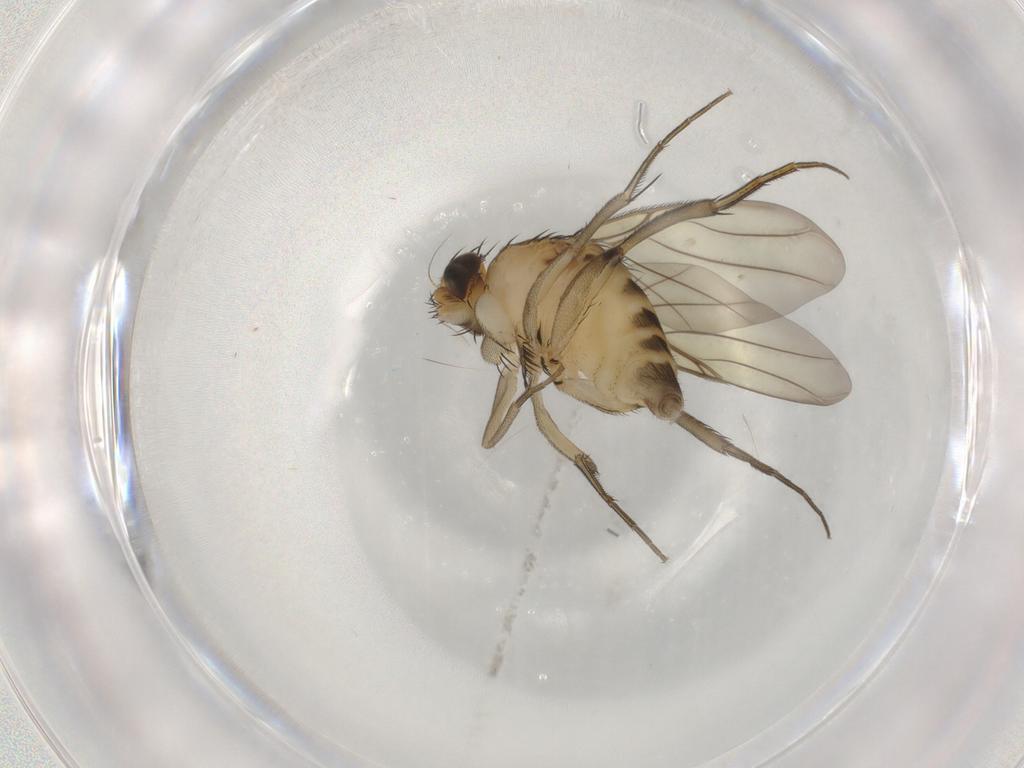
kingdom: Animalia
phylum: Arthropoda
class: Insecta
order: Diptera
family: Phoridae
